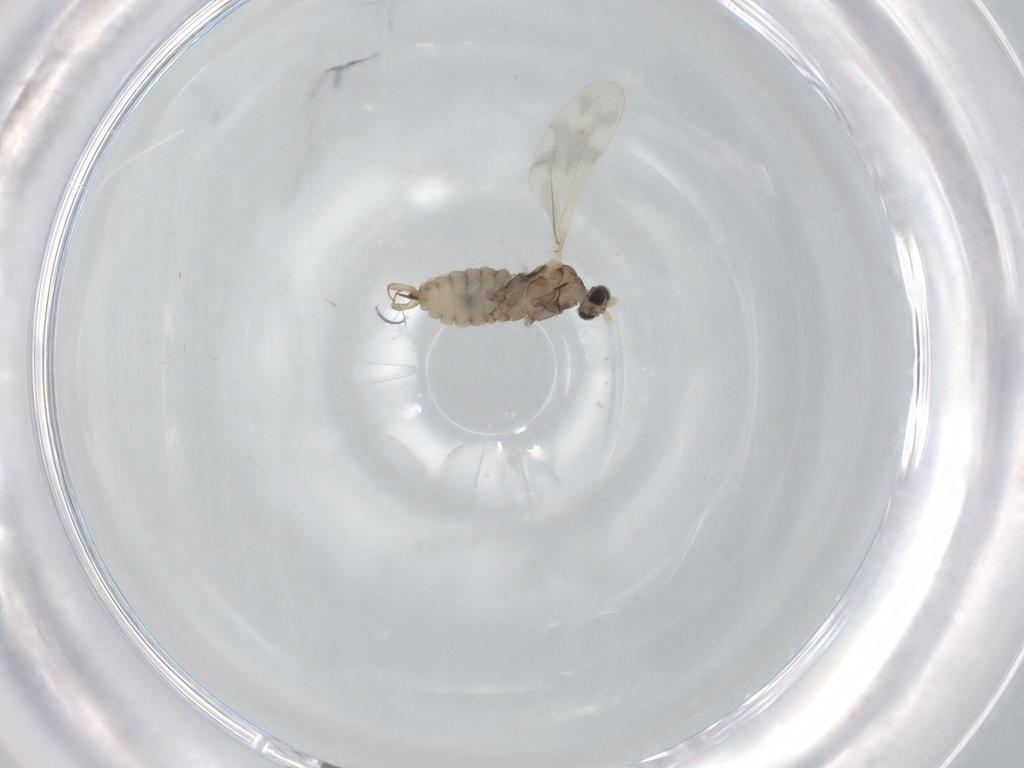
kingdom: Animalia
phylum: Arthropoda
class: Insecta
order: Diptera
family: Cecidomyiidae
